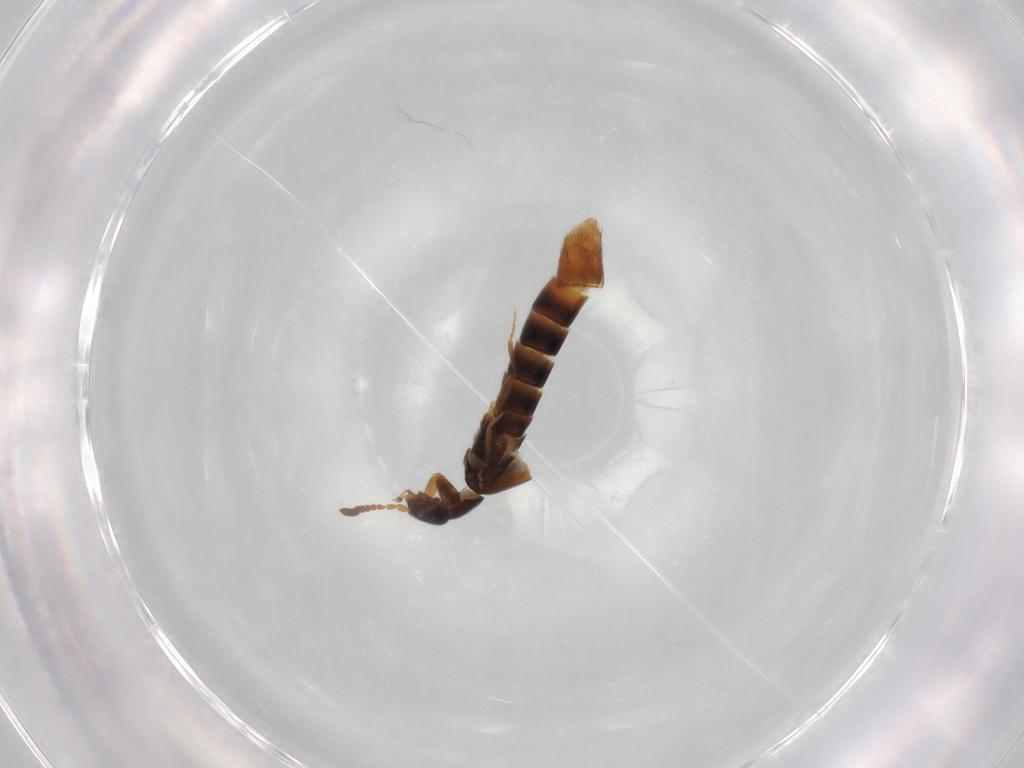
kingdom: Animalia
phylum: Arthropoda
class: Insecta
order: Coleoptera
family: Staphylinidae
